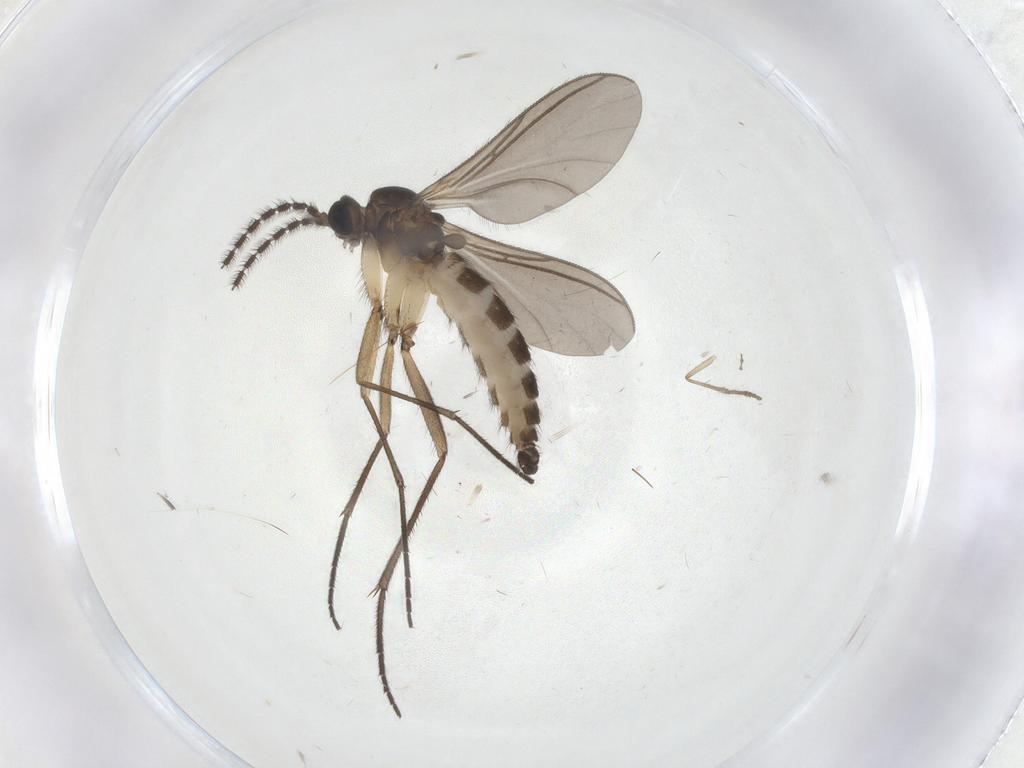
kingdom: Animalia
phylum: Arthropoda
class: Insecta
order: Diptera
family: Sciaridae
